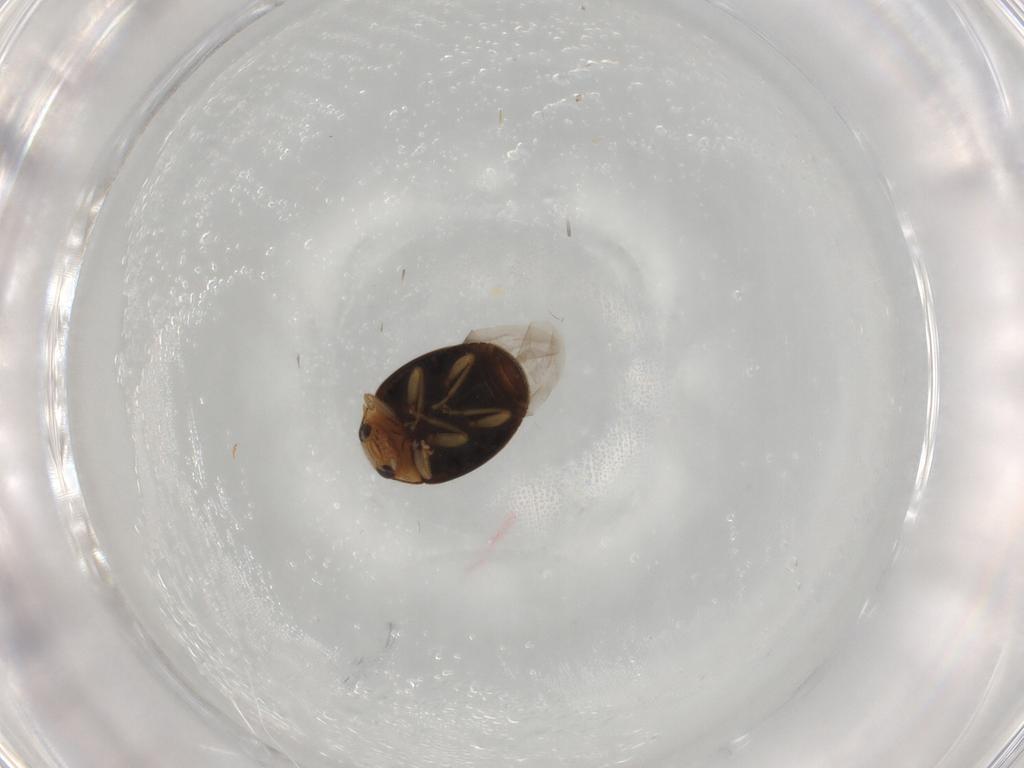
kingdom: Animalia
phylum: Arthropoda
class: Insecta
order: Coleoptera
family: Coccinellidae
